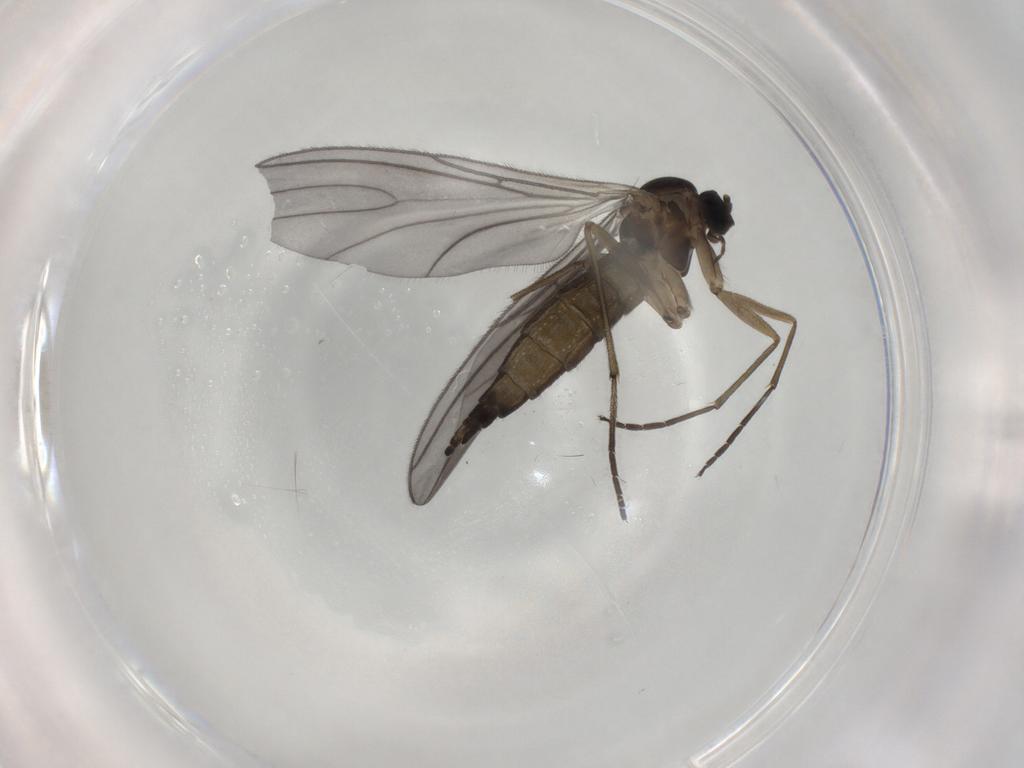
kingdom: Animalia
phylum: Arthropoda
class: Insecta
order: Diptera
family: Sciaridae
